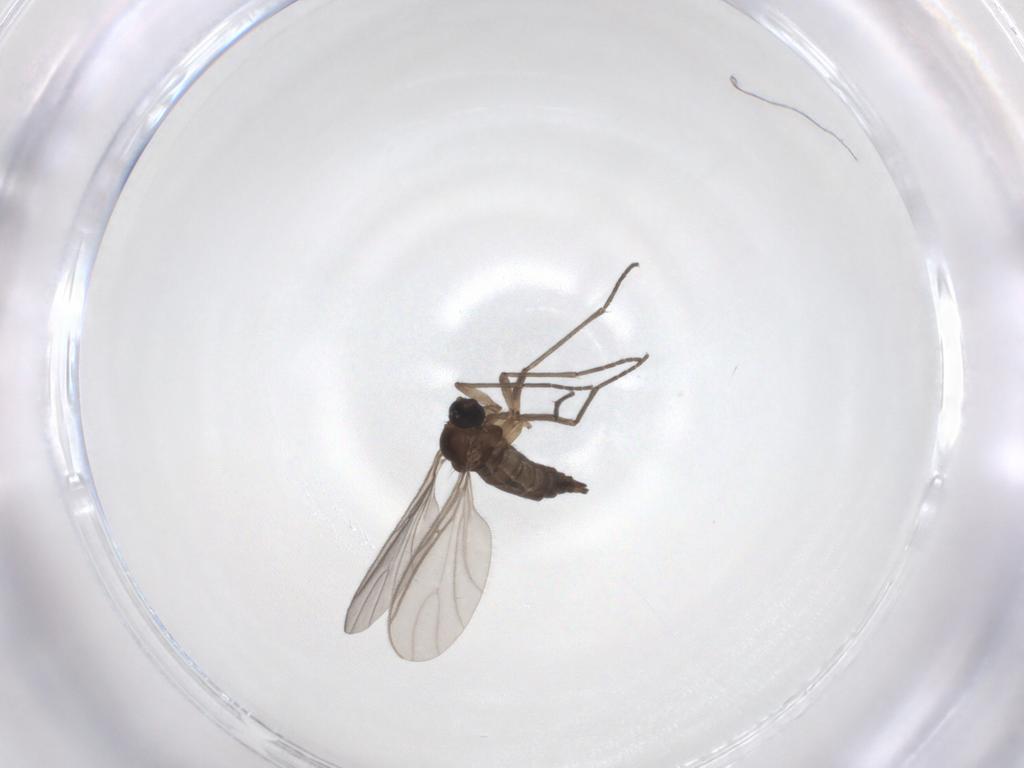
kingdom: Animalia
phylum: Arthropoda
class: Insecta
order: Diptera
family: Sciaridae
